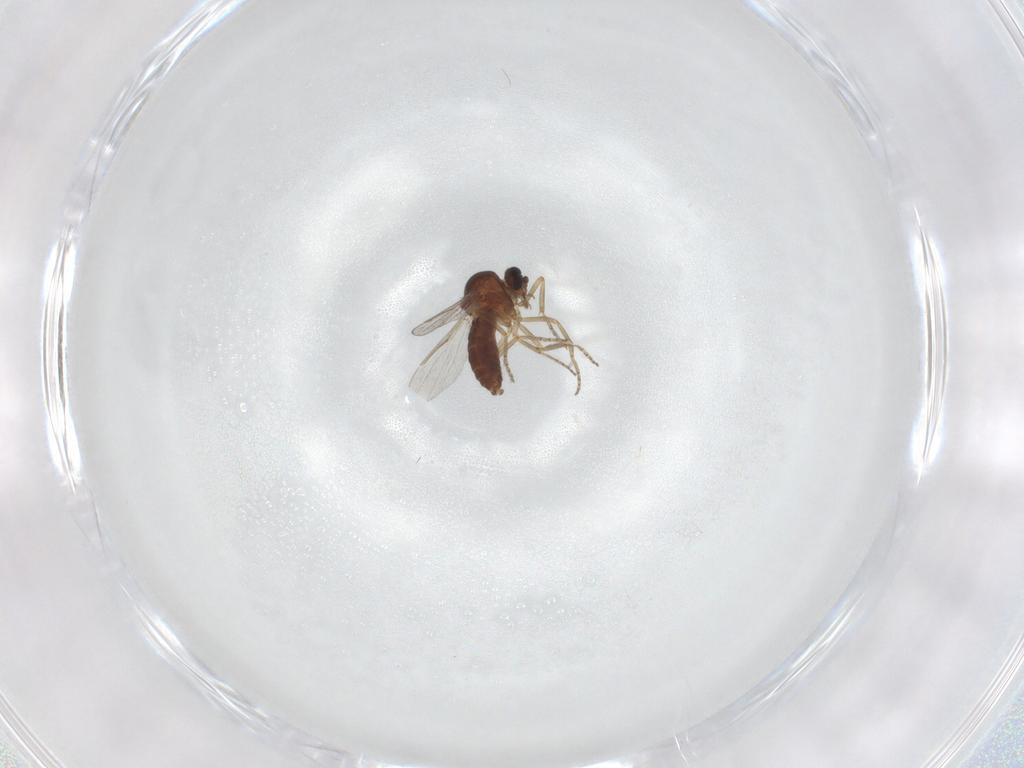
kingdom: Animalia
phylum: Arthropoda
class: Insecta
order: Diptera
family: Ceratopogonidae
